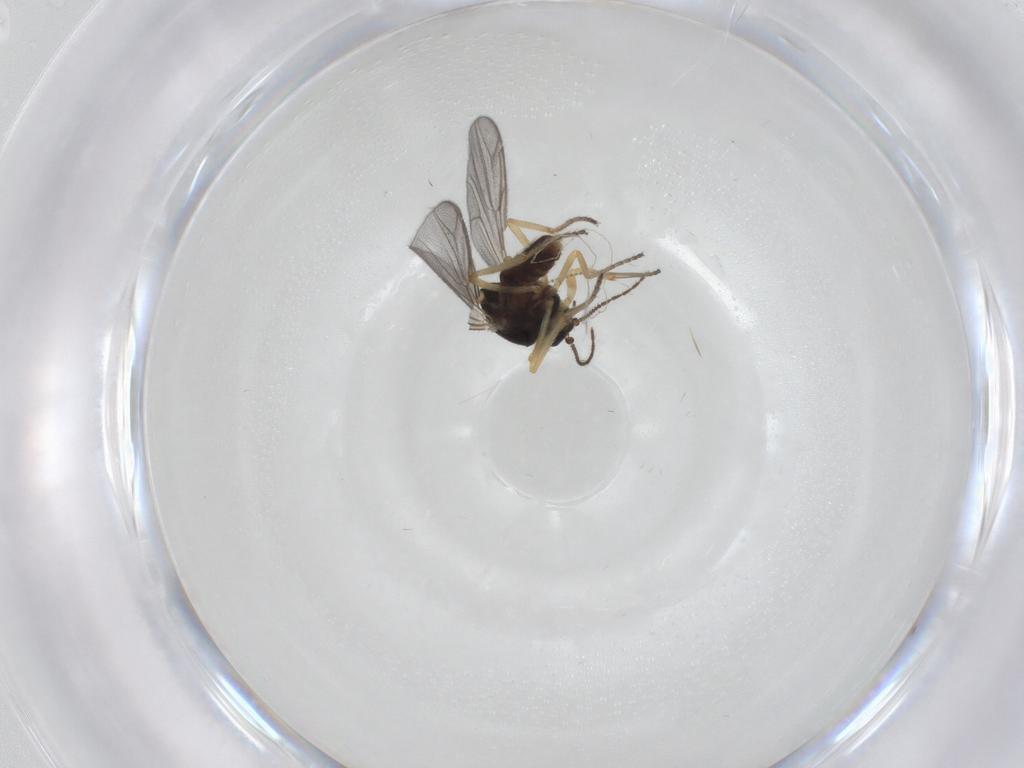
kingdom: Animalia
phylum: Arthropoda
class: Insecta
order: Diptera
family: Ceratopogonidae
